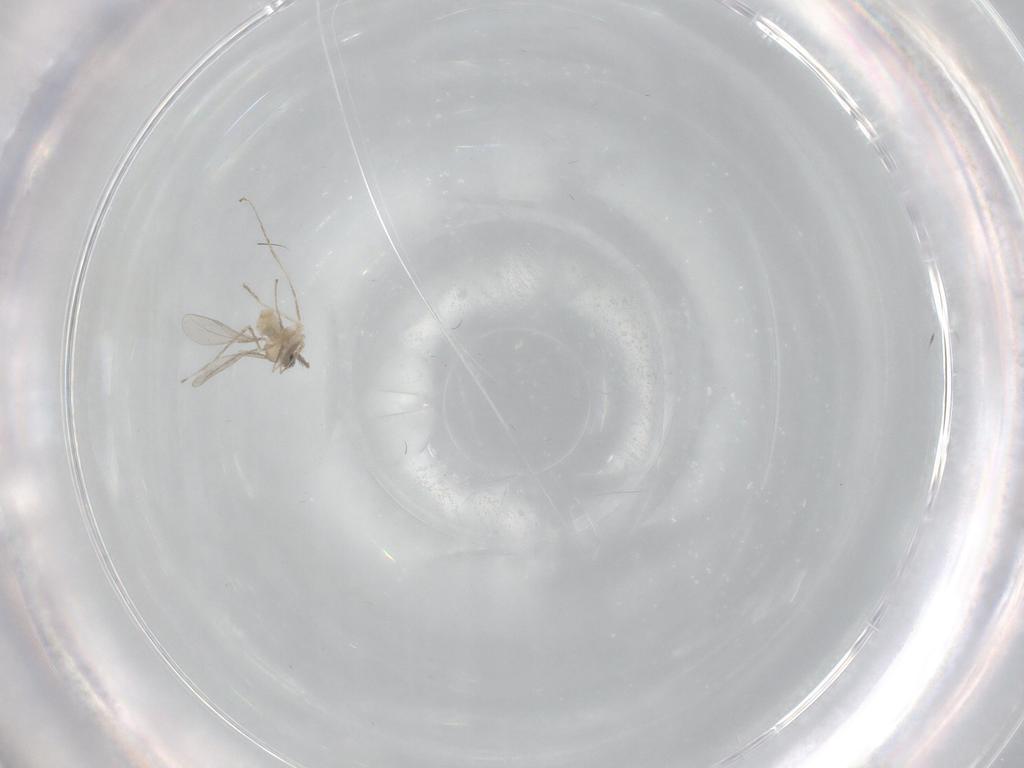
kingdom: Animalia
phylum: Arthropoda
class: Insecta
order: Diptera
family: Cecidomyiidae
